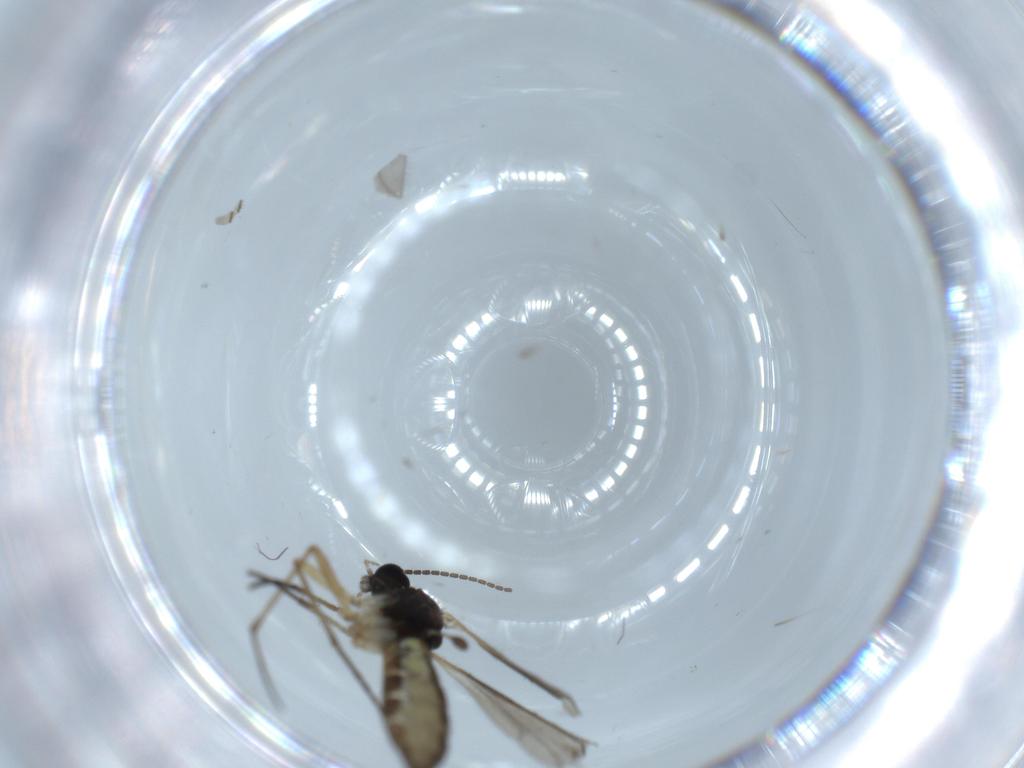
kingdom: Animalia
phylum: Arthropoda
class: Insecta
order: Diptera
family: Sciaridae
